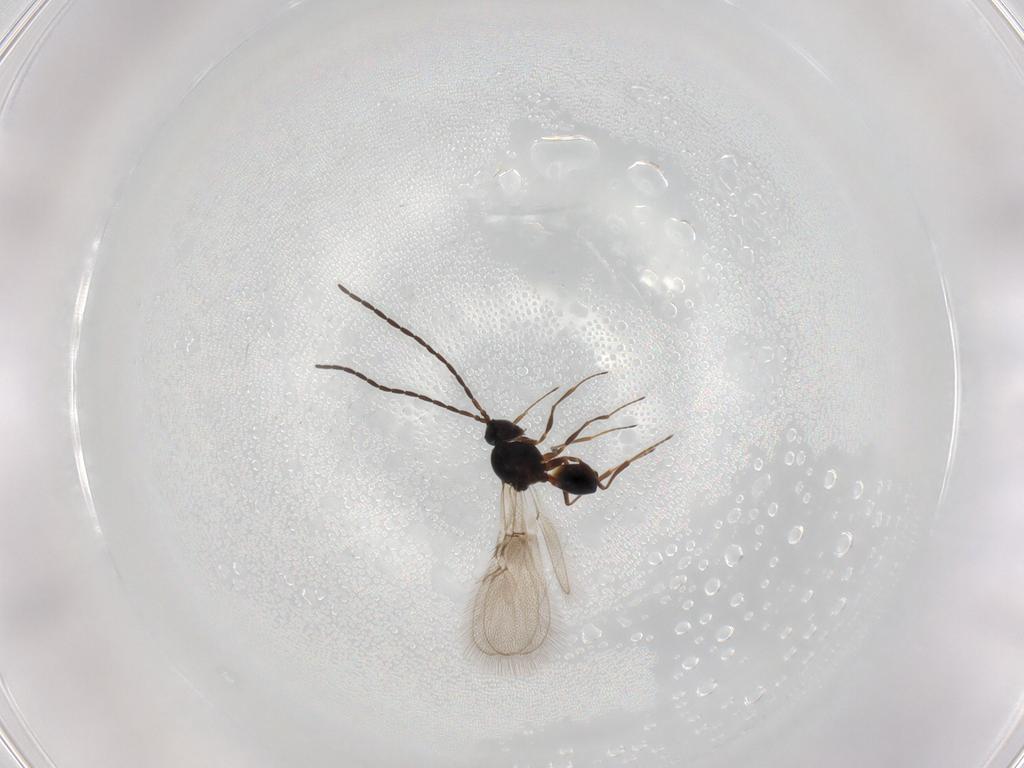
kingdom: Animalia
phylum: Arthropoda
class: Insecta
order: Hymenoptera
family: Figitidae
